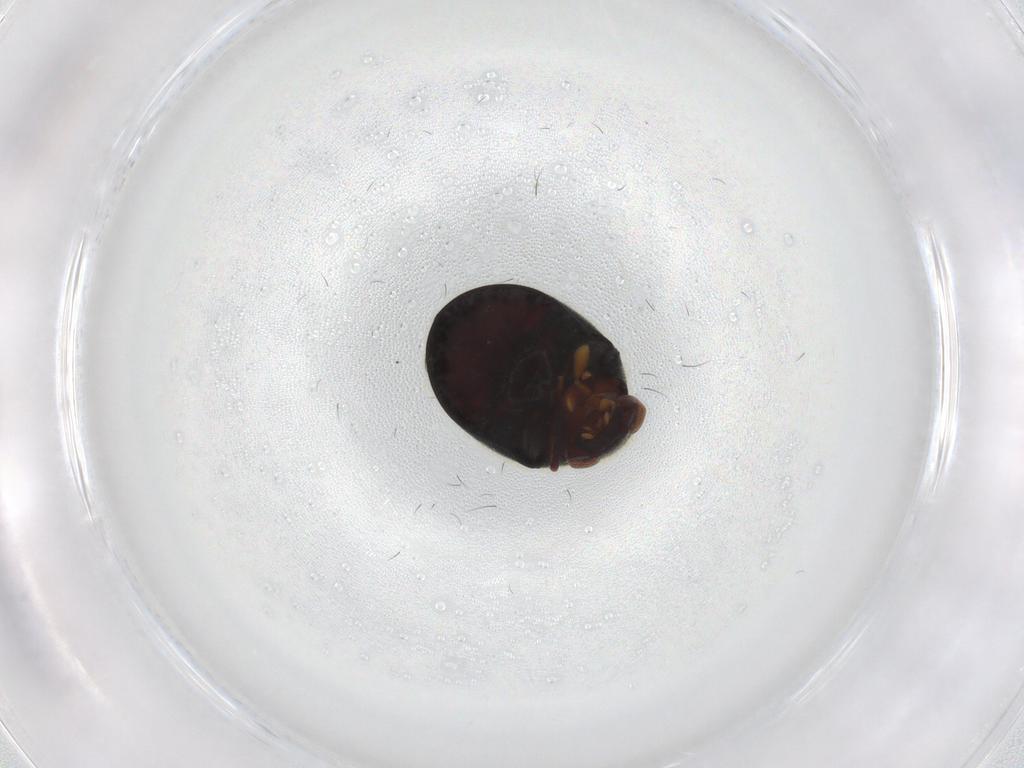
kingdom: Animalia
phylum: Arthropoda
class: Insecta
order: Coleoptera
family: Ptinidae
